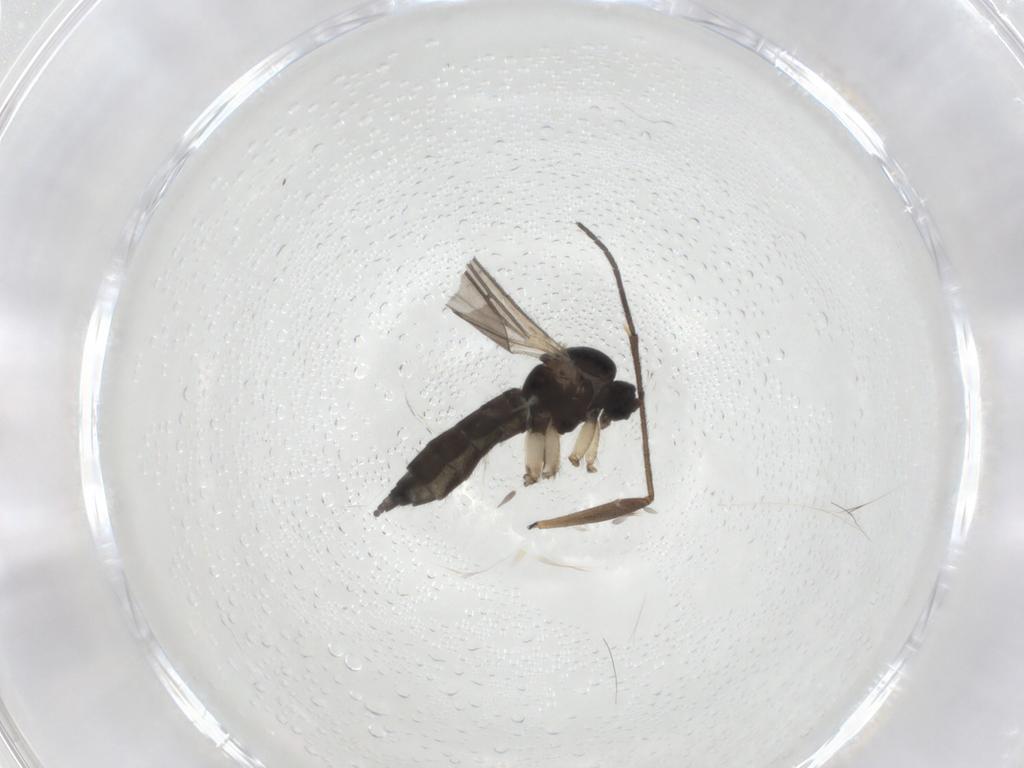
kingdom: Animalia
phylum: Arthropoda
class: Insecta
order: Diptera
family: Sciaridae
